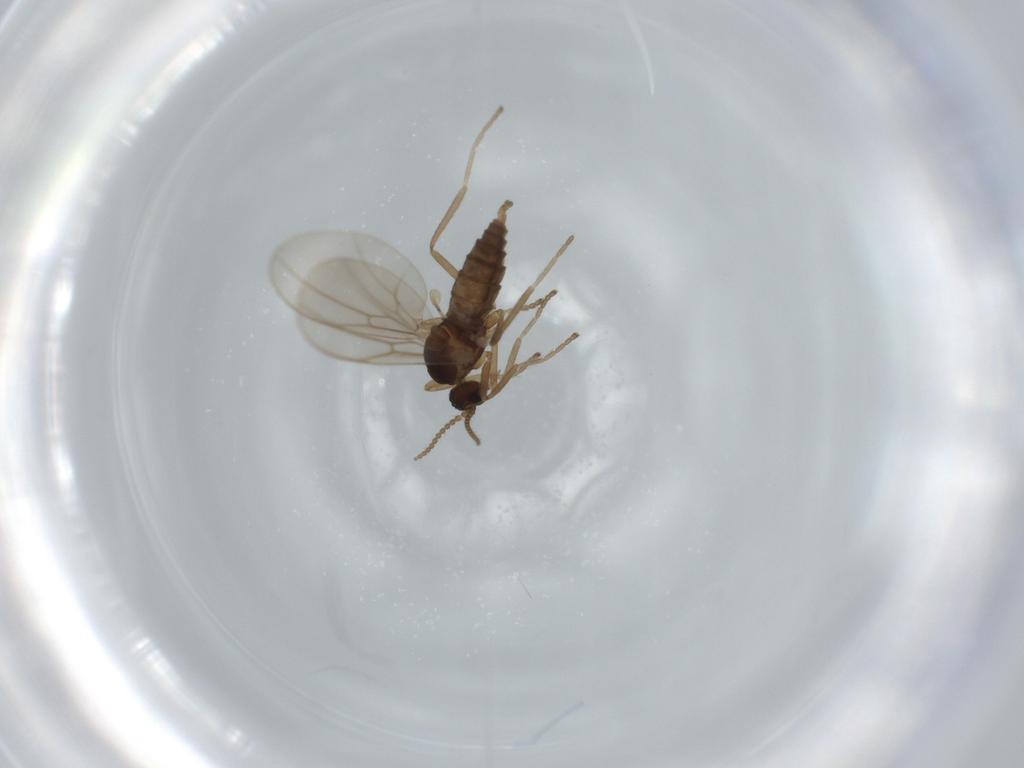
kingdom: Animalia
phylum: Arthropoda
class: Insecta
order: Diptera
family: Cecidomyiidae
